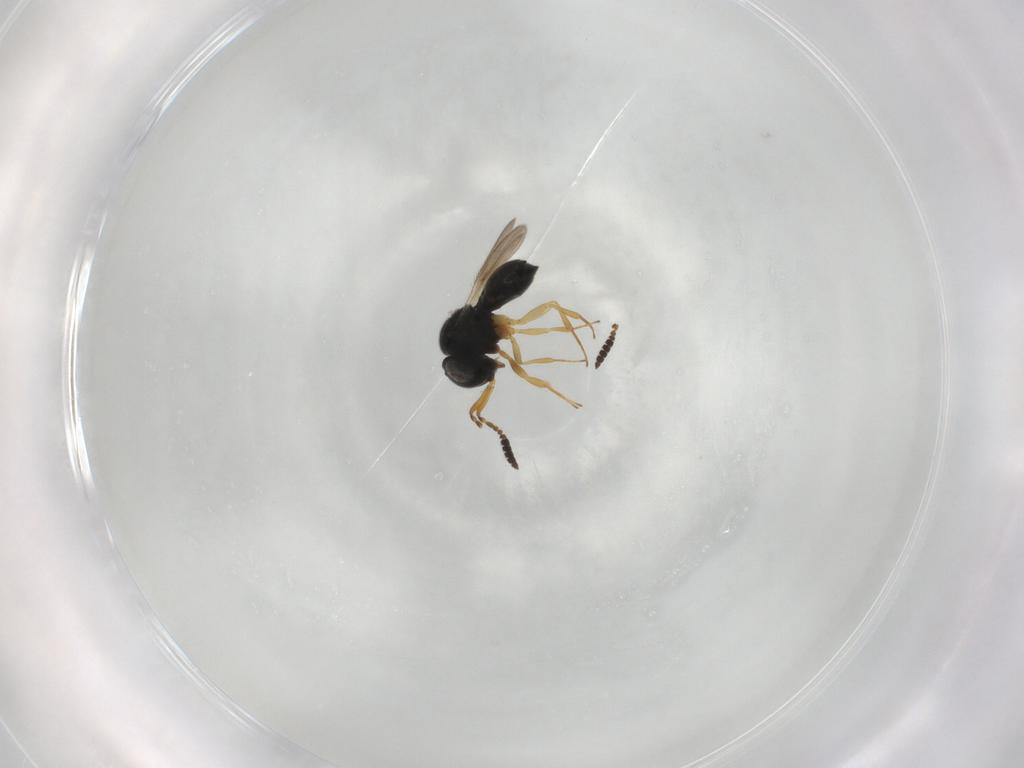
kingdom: Animalia
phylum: Arthropoda
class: Insecta
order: Hymenoptera
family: Scelionidae
